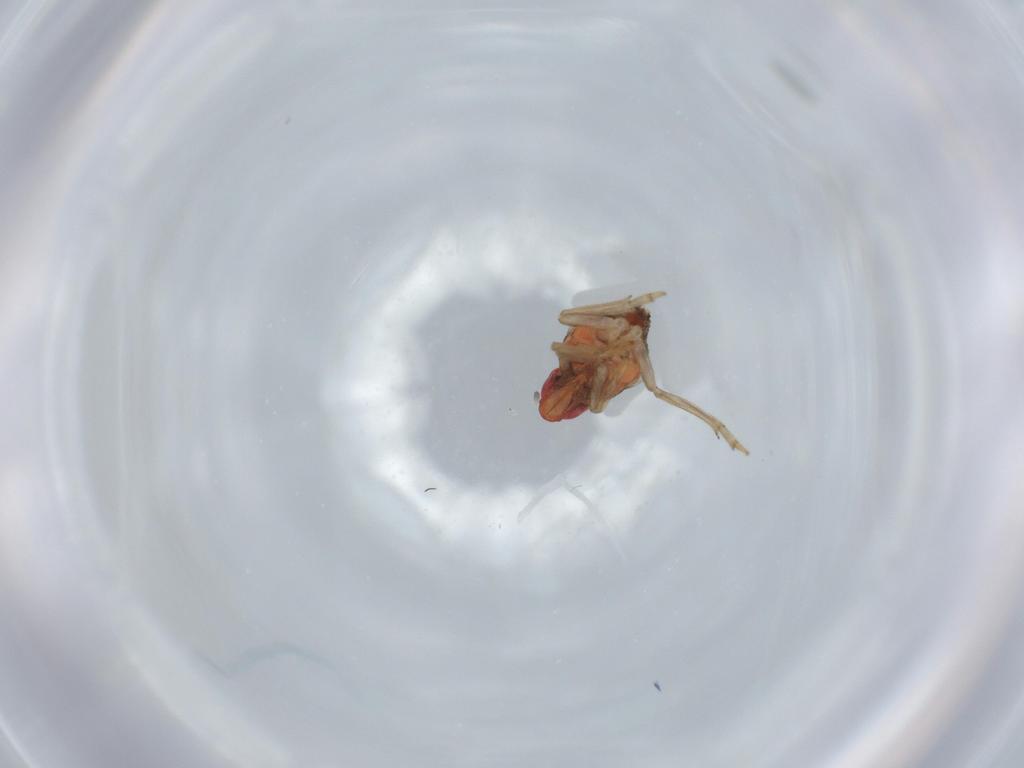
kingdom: Animalia
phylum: Arthropoda
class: Insecta
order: Hemiptera
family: Fulgoroidea_incertae_sedis
